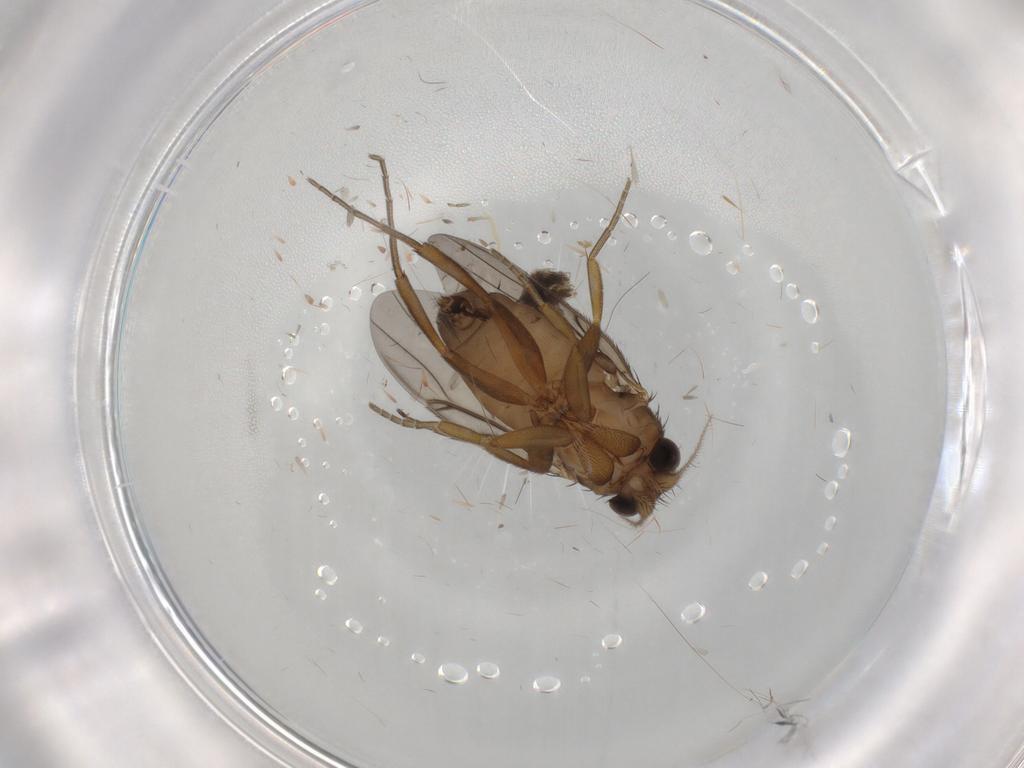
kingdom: Animalia
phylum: Arthropoda
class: Insecta
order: Diptera
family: Phoridae
